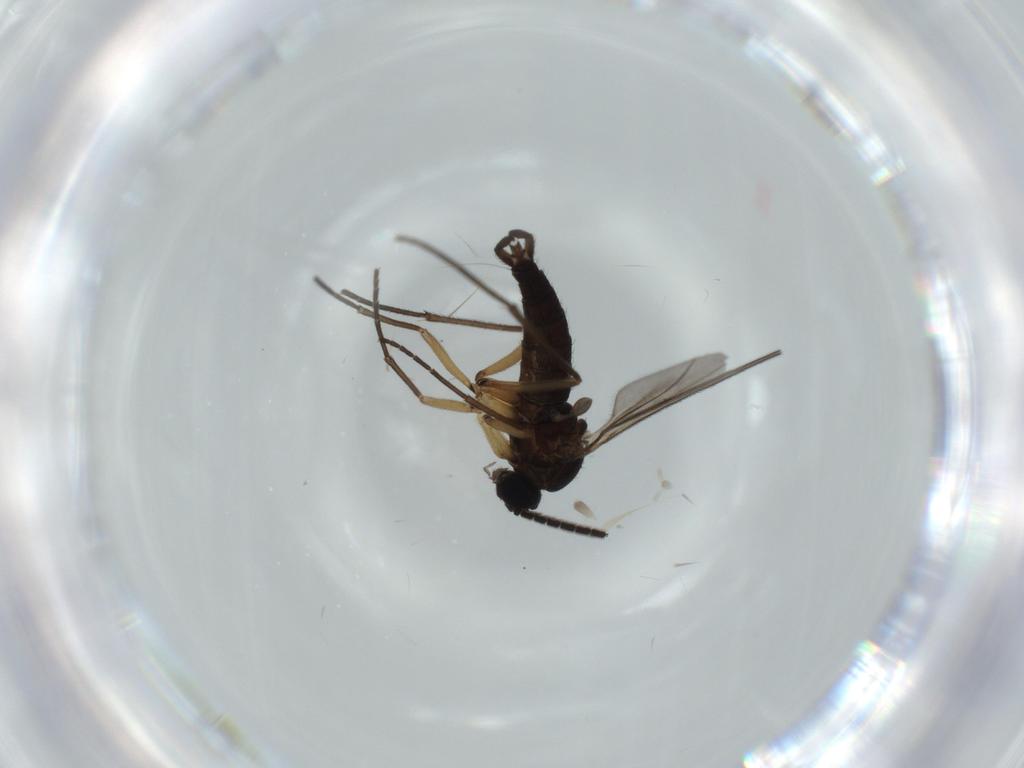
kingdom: Animalia
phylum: Arthropoda
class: Insecta
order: Diptera
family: Sciaridae
